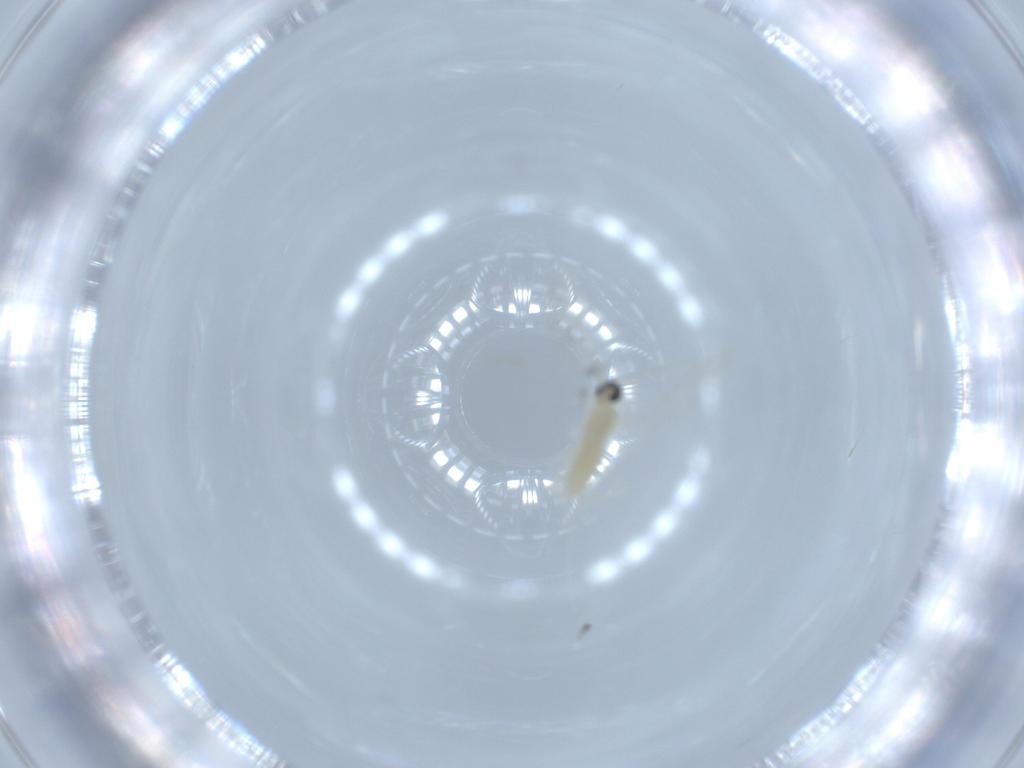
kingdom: Animalia
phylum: Arthropoda
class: Insecta
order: Diptera
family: Cecidomyiidae
